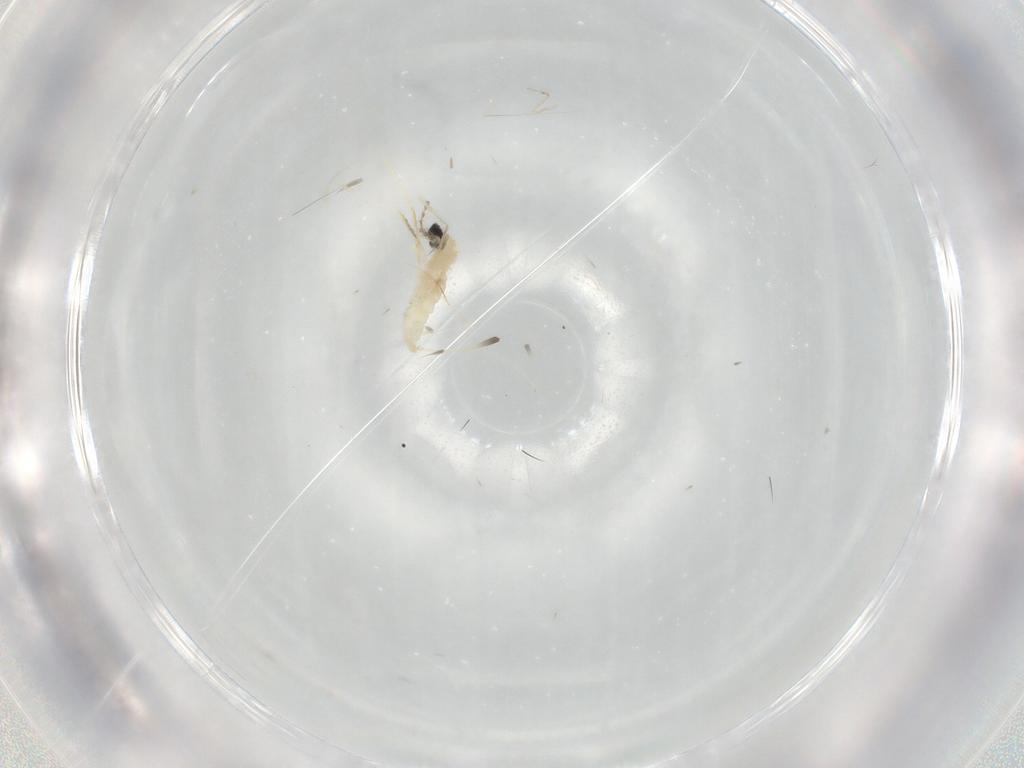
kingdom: Animalia
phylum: Arthropoda
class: Insecta
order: Diptera
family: Cecidomyiidae
